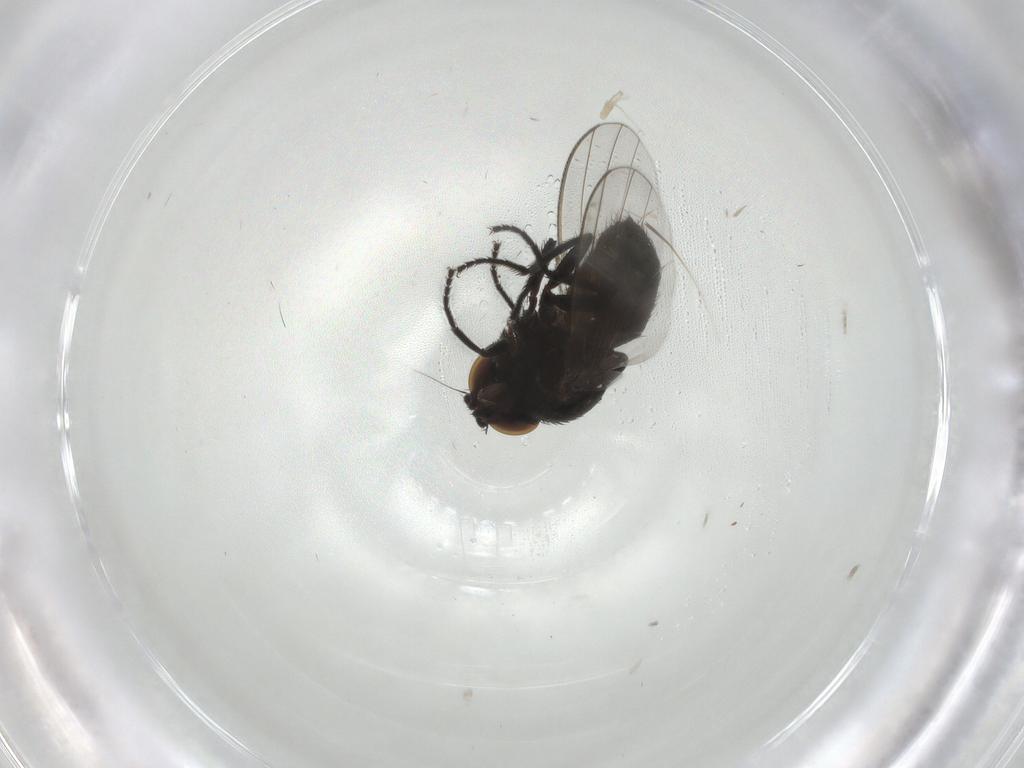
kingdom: Animalia
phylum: Arthropoda
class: Insecta
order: Diptera
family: Milichiidae
